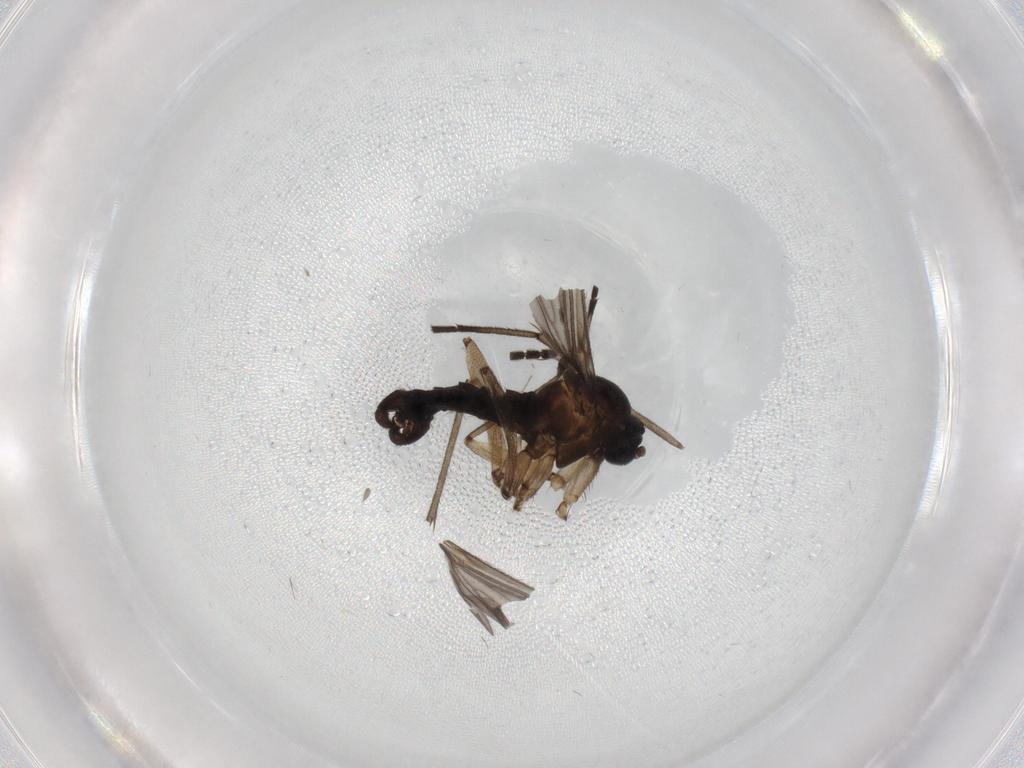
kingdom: Animalia
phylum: Arthropoda
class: Insecta
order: Diptera
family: Sciaridae
